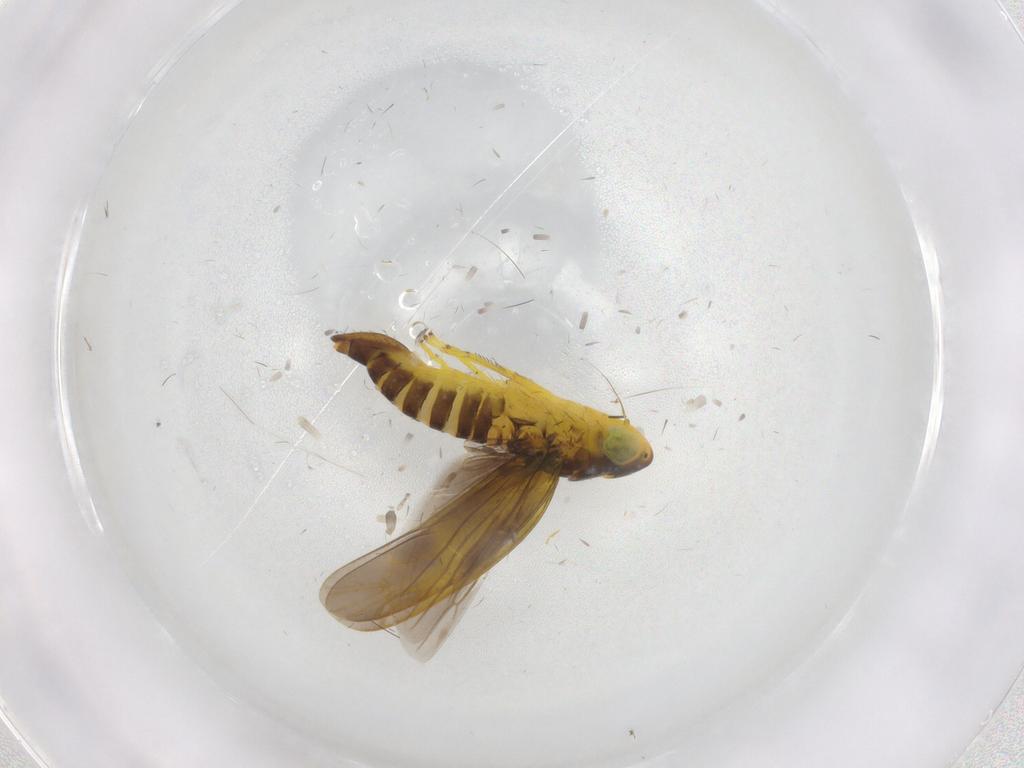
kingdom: Animalia
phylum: Arthropoda
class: Insecta
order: Hemiptera
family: Cicadellidae
